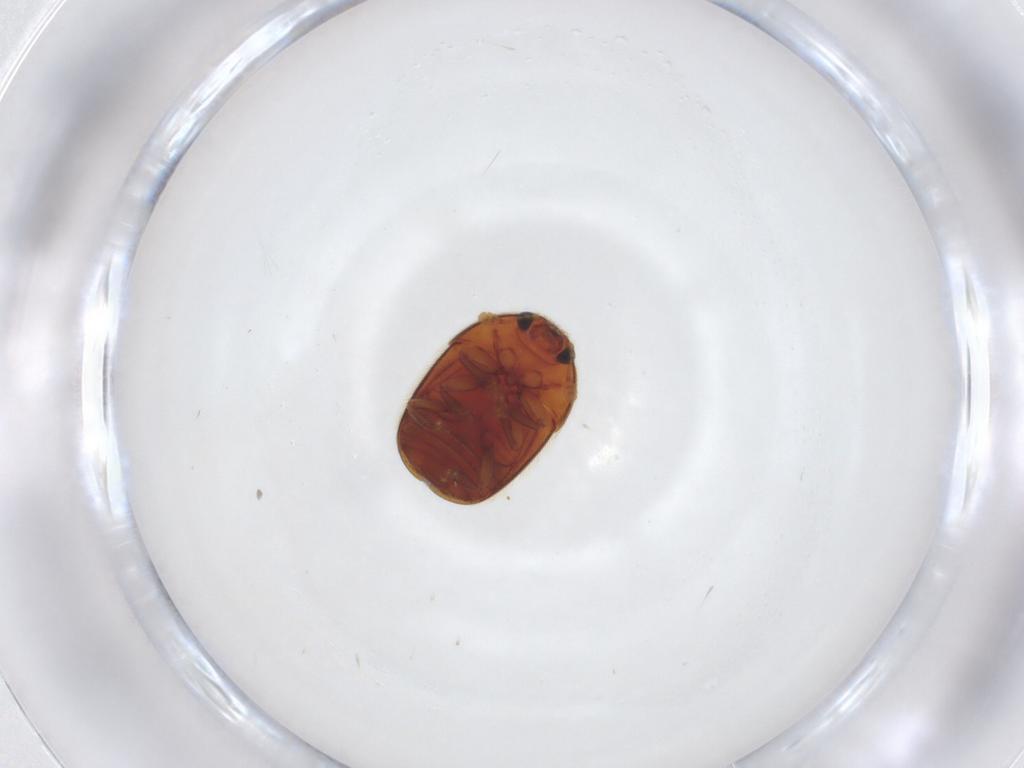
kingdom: Animalia
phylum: Arthropoda
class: Insecta
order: Coleoptera
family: Nitidulidae
